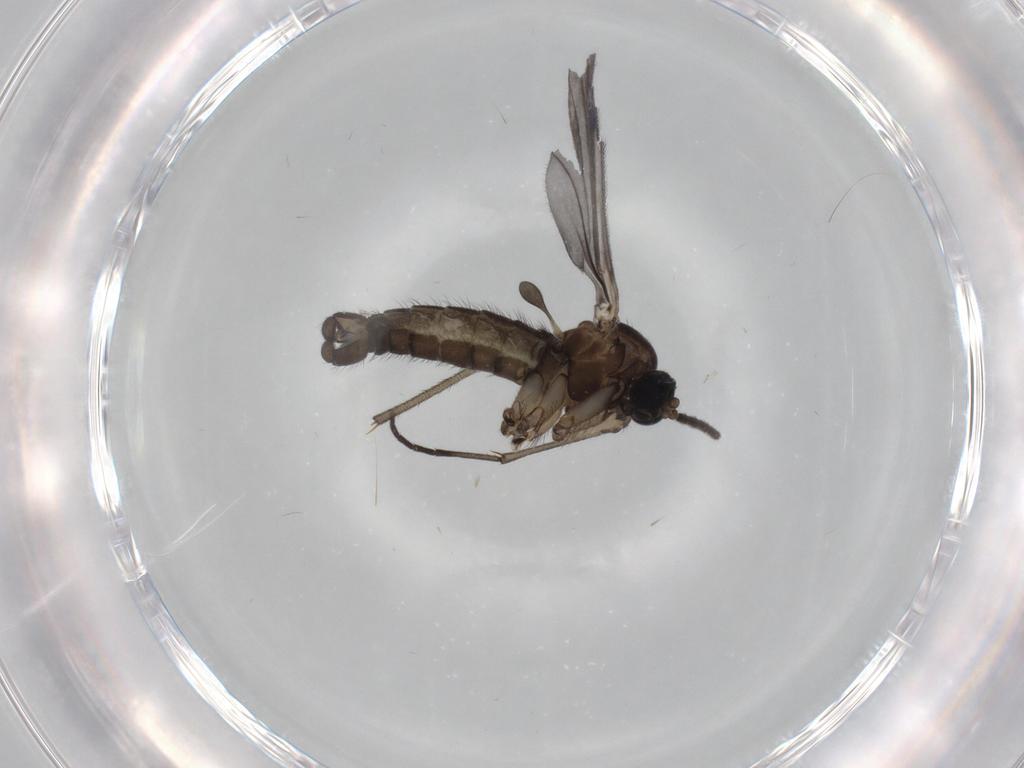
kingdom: Animalia
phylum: Arthropoda
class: Insecta
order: Diptera
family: Sciaridae
